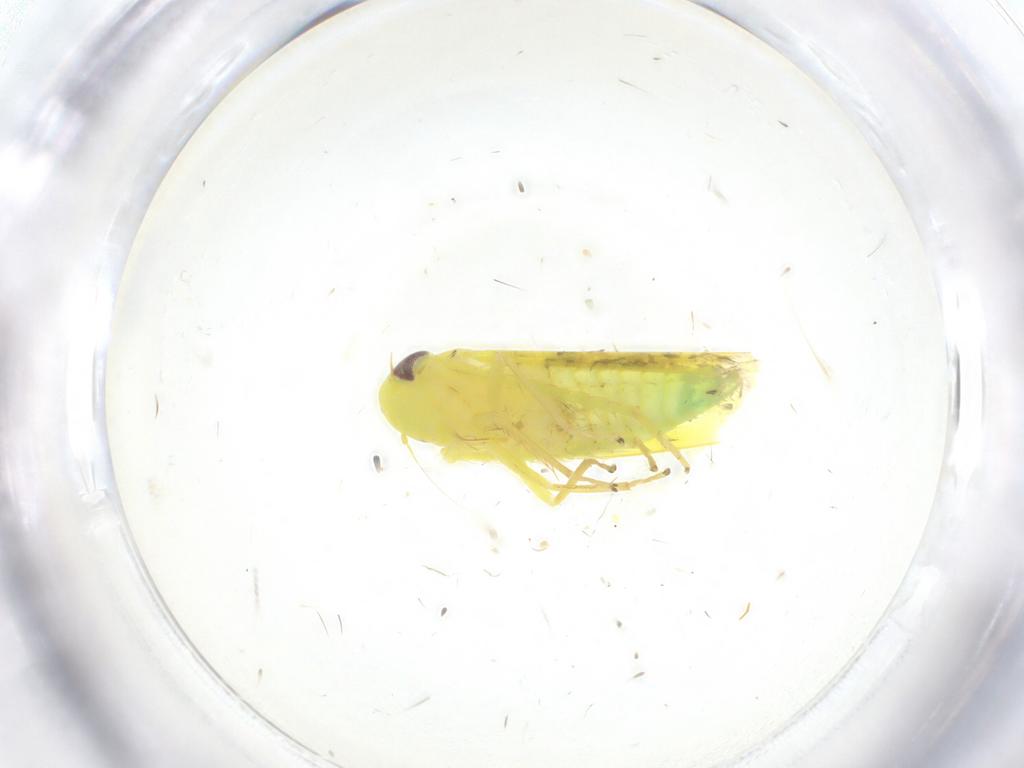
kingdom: Animalia
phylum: Arthropoda
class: Insecta
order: Hemiptera
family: Cicadellidae
